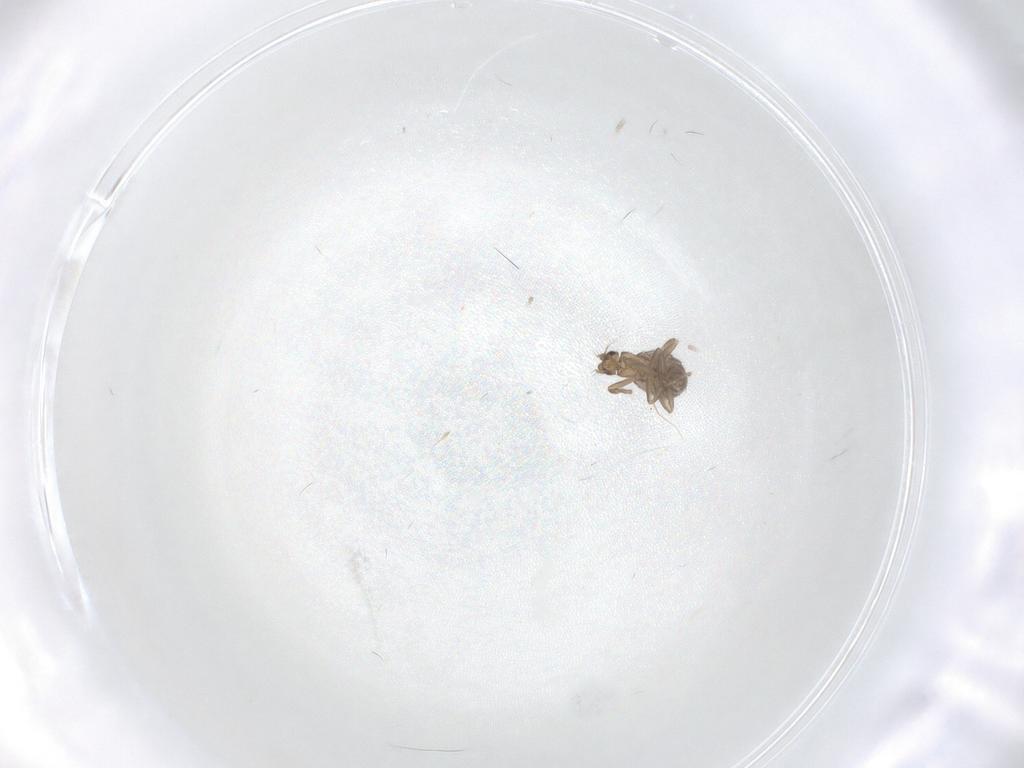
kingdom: Animalia
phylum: Arthropoda
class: Insecta
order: Diptera
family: Phoridae
